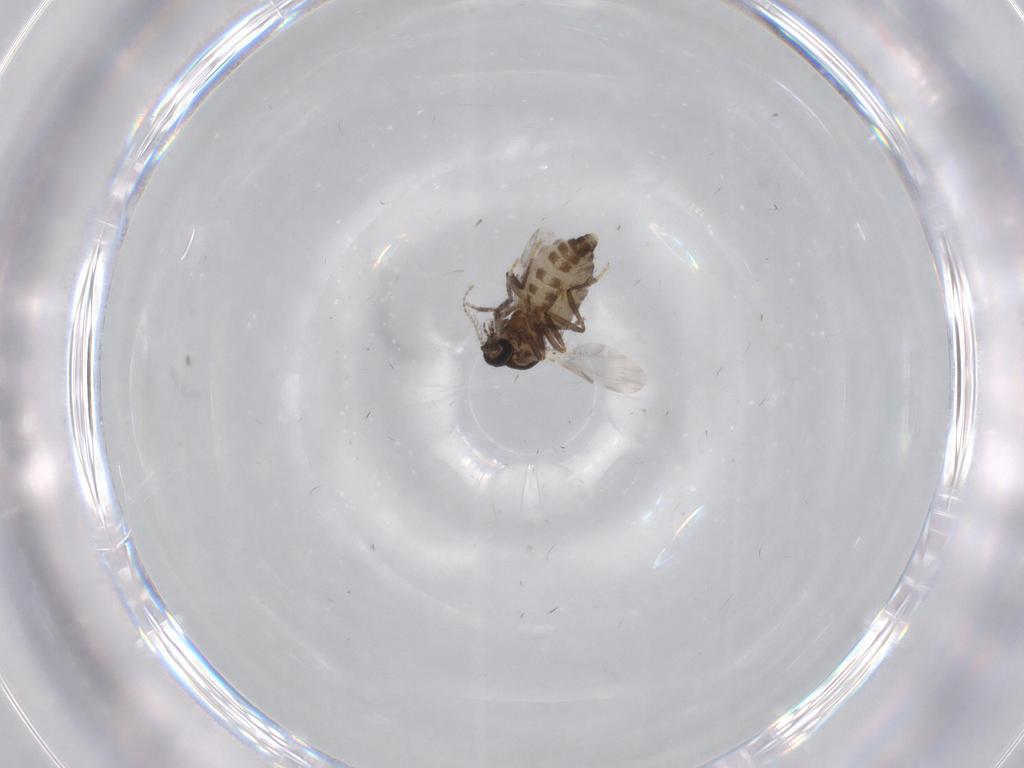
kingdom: Animalia
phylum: Arthropoda
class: Insecta
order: Diptera
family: Ceratopogonidae
